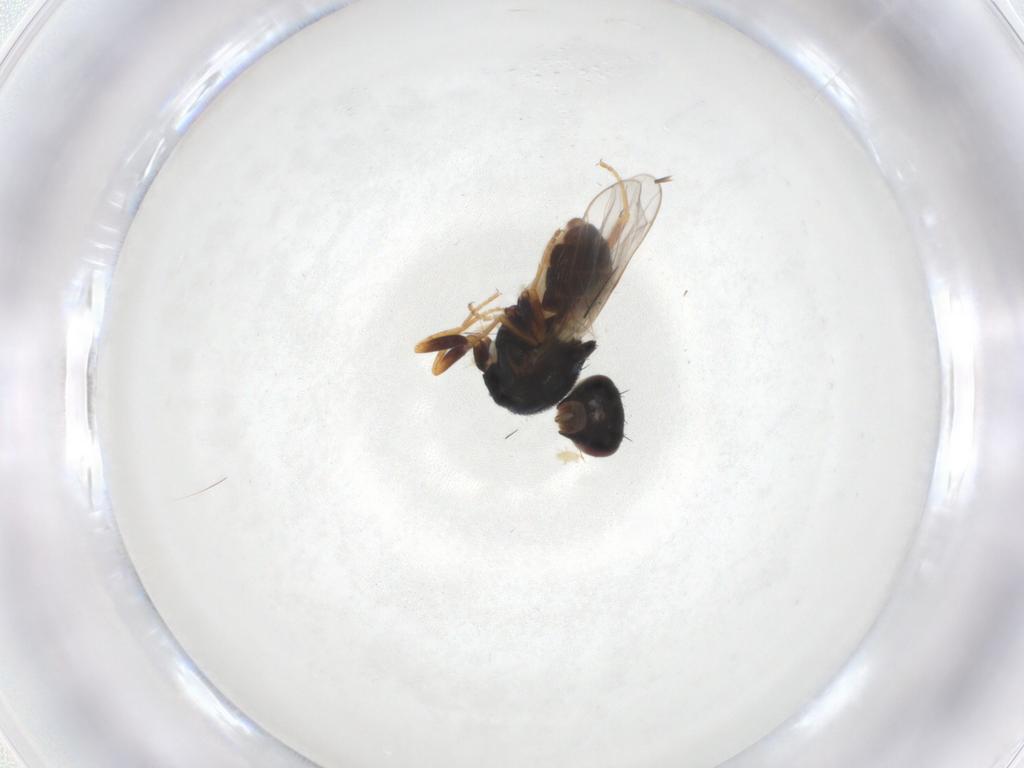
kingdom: Animalia
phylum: Arthropoda
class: Insecta
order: Diptera
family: Chloropidae
